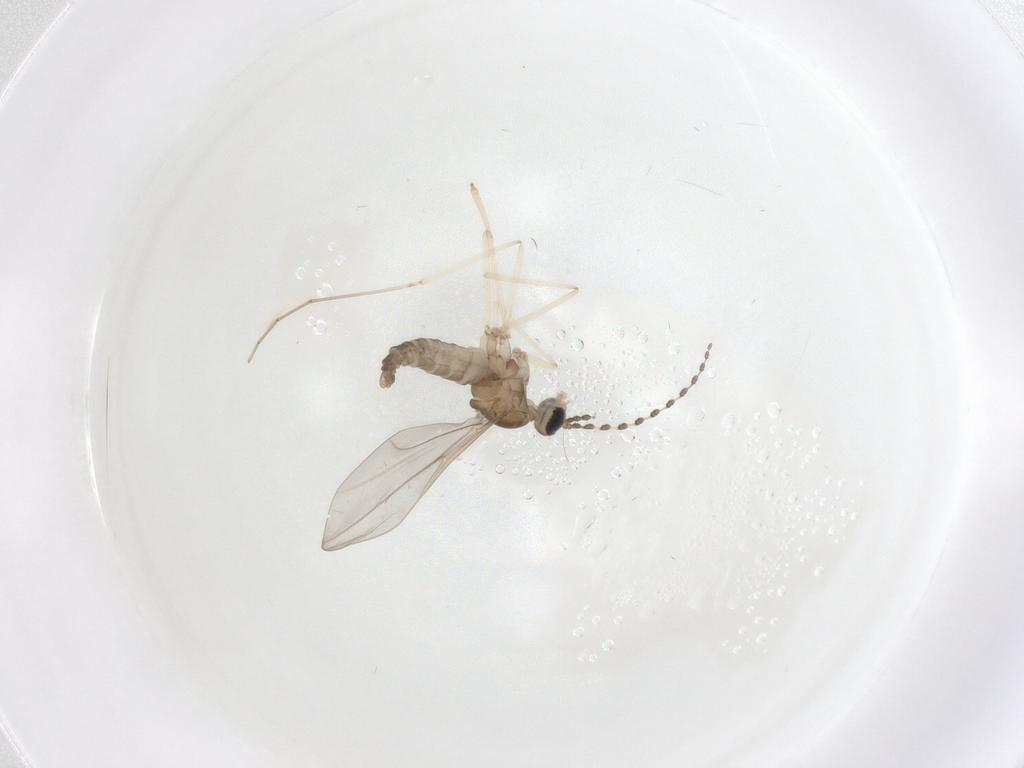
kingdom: Animalia
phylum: Arthropoda
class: Insecta
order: Diptera
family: Cecidomyiidae
